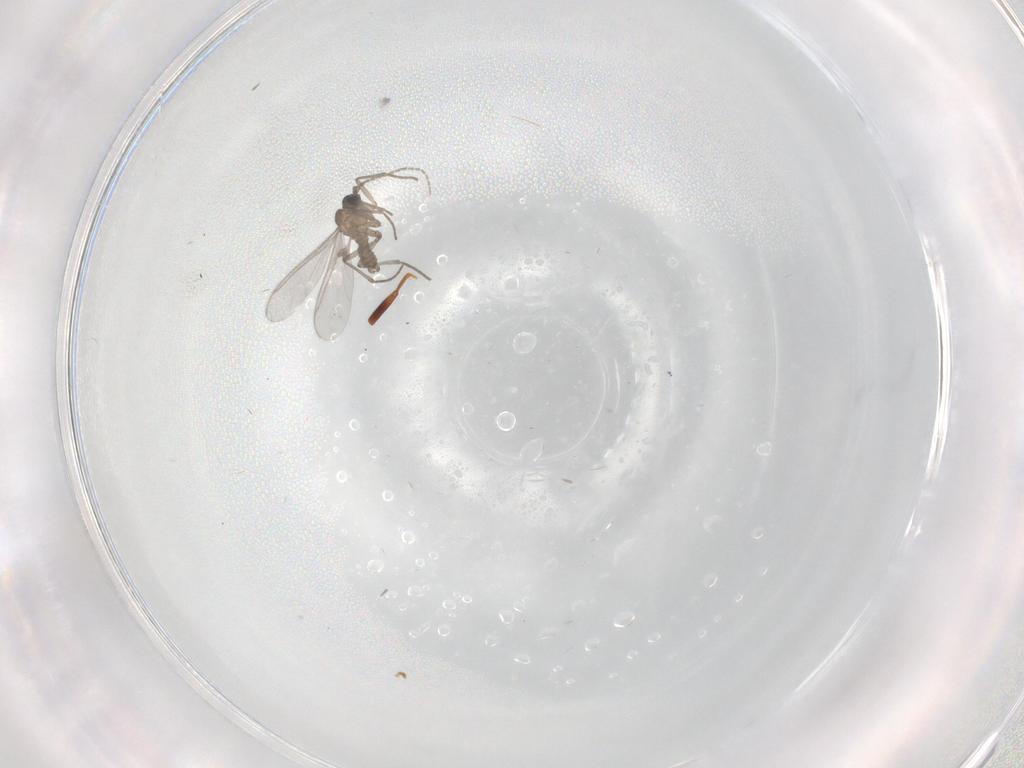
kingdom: Animalia
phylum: Arthropoda
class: Insecta
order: Diptera
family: Sciaridae
